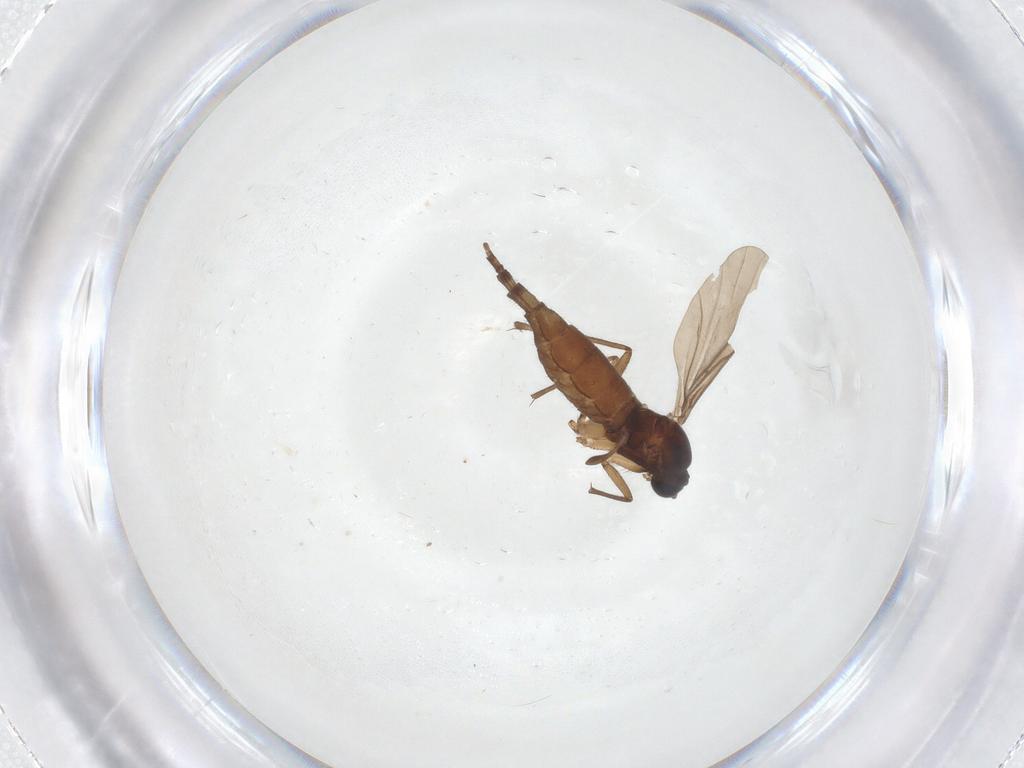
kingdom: Animalia
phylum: Arthropoda
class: Insecta
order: Diptera
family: Sciaridae
